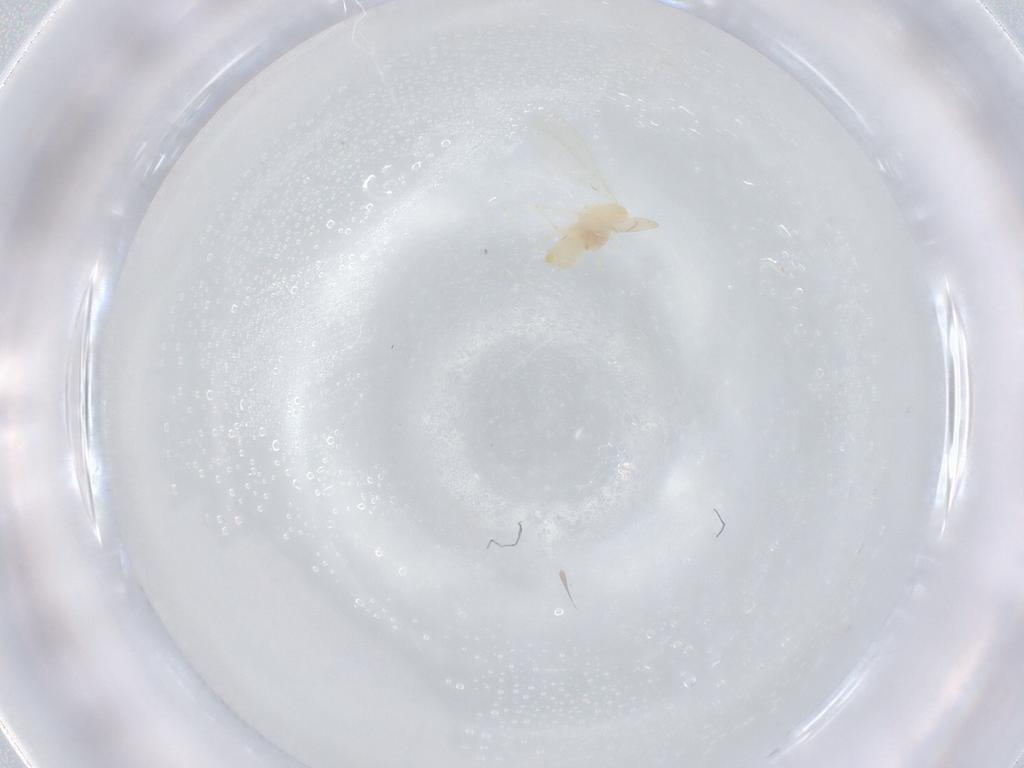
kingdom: Animalia
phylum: Arthropoda
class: Insecta
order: Diptera
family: Cecidomyiidae
